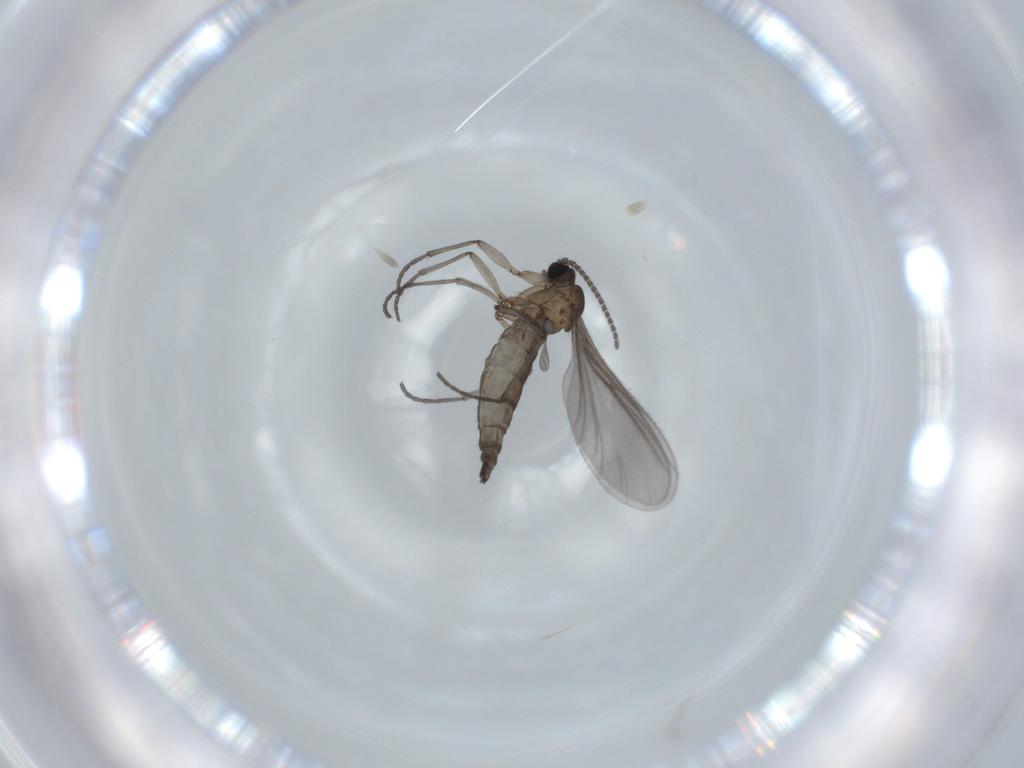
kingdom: Animalia
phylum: Arthropoda
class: Insecta
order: Diptera
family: Sciaridae
